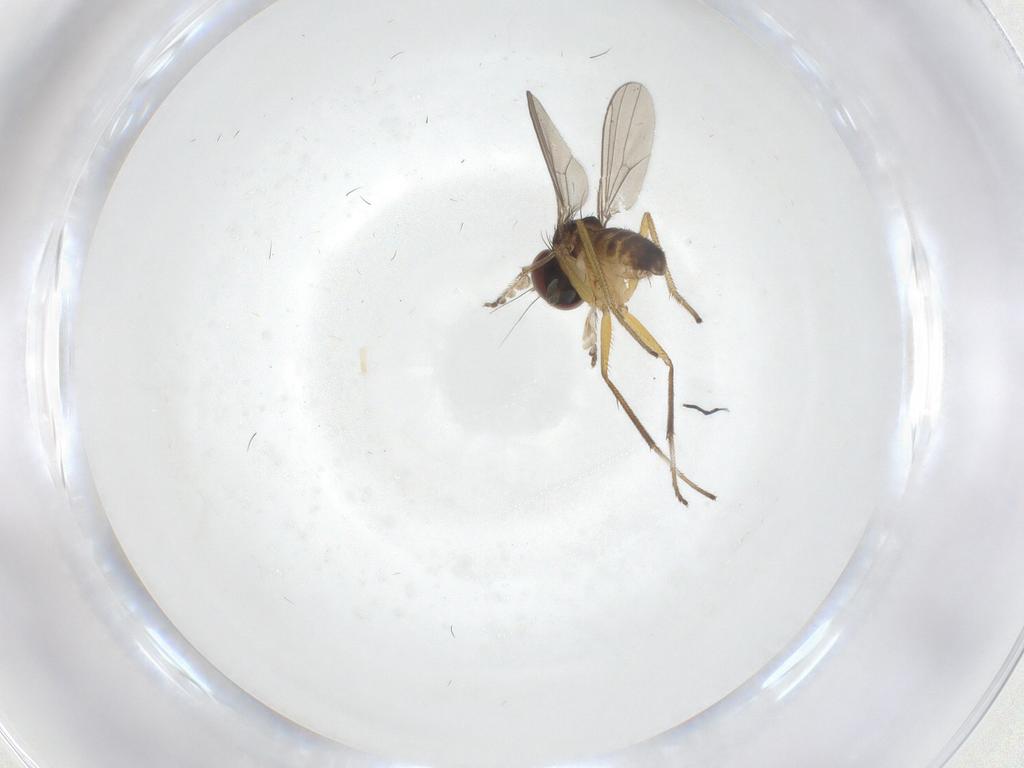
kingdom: Animalia
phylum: Arthropoda
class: Insecta
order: Diptera
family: Dolichopodidae
